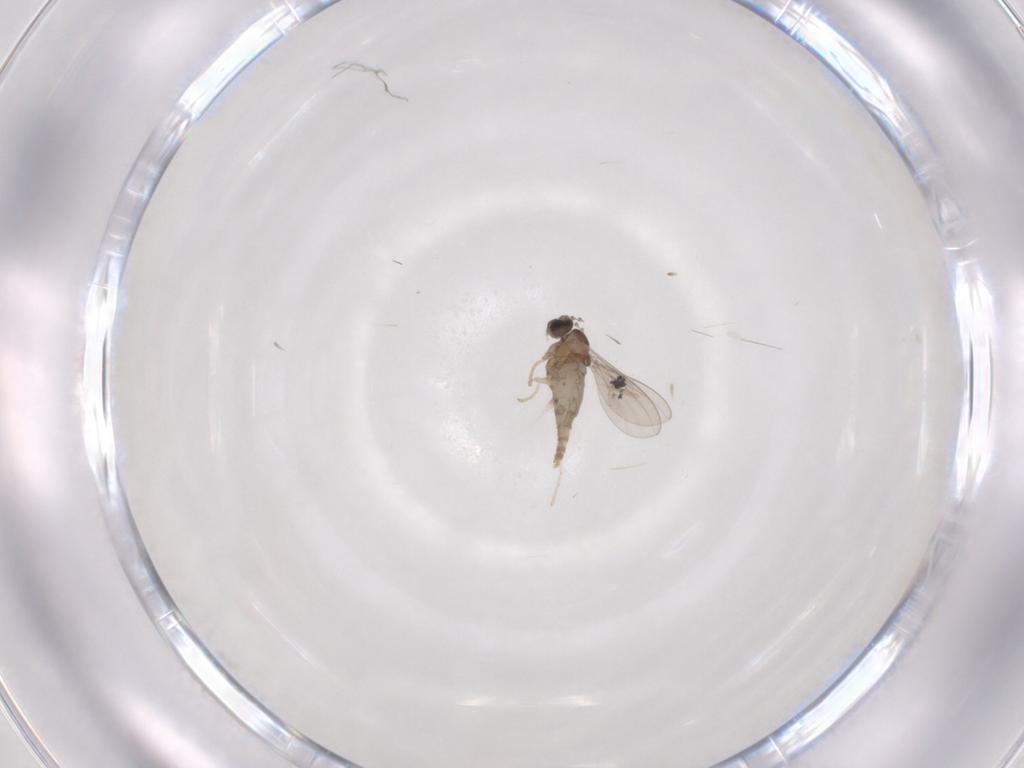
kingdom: Animalia
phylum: Arthropoda
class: Insecta
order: Diptera
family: Cecidomyiidae
